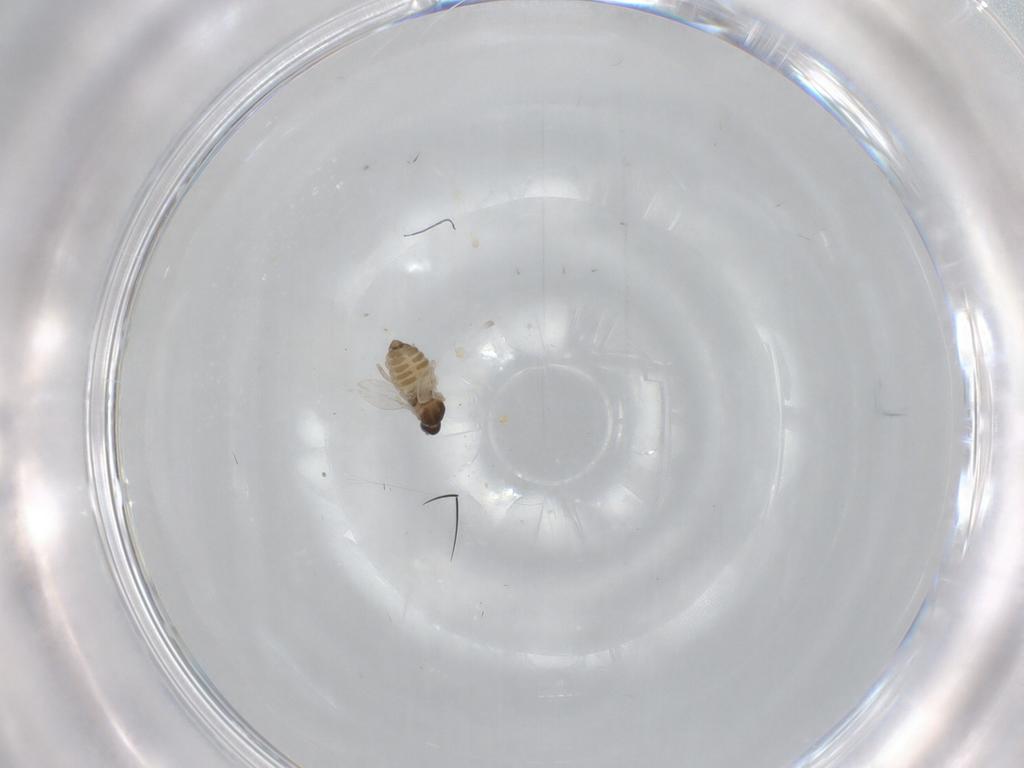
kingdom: Animalia
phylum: Arthropoda
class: Insecta
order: Diptera
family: Cecidomyiidae
